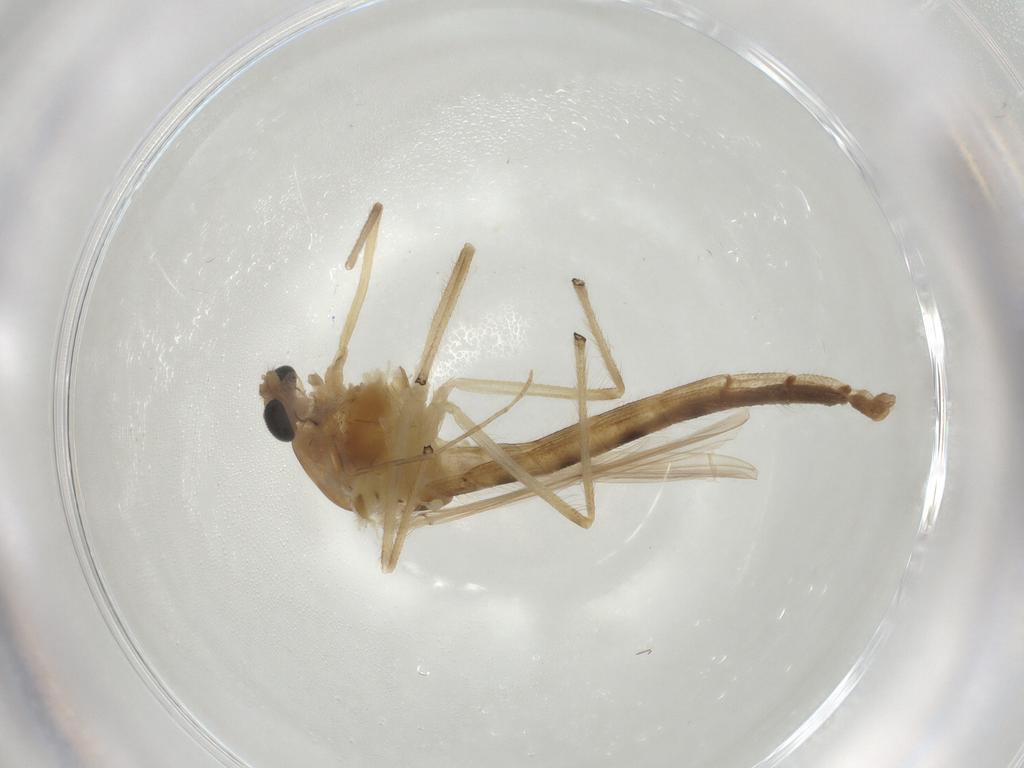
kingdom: Animalia
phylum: Arthropoda
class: Insecta
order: Diptera
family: Chironomidae
